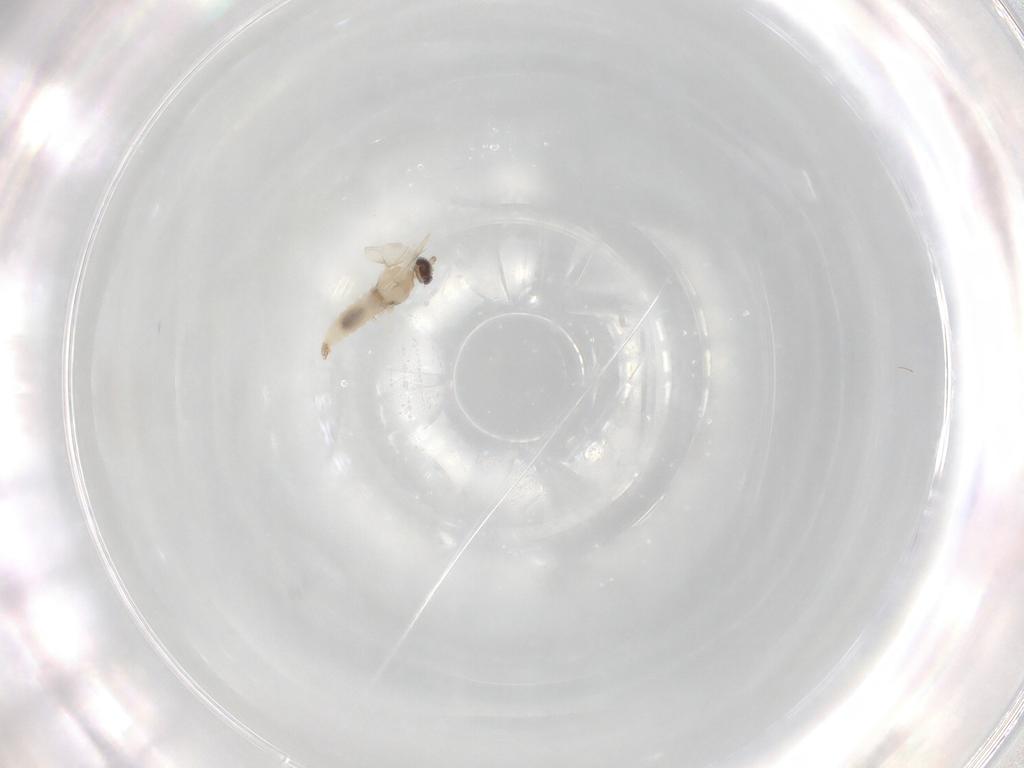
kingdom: Animalia
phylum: Arthropoda
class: Insecta
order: Diptera
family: Cecidomyiidae
